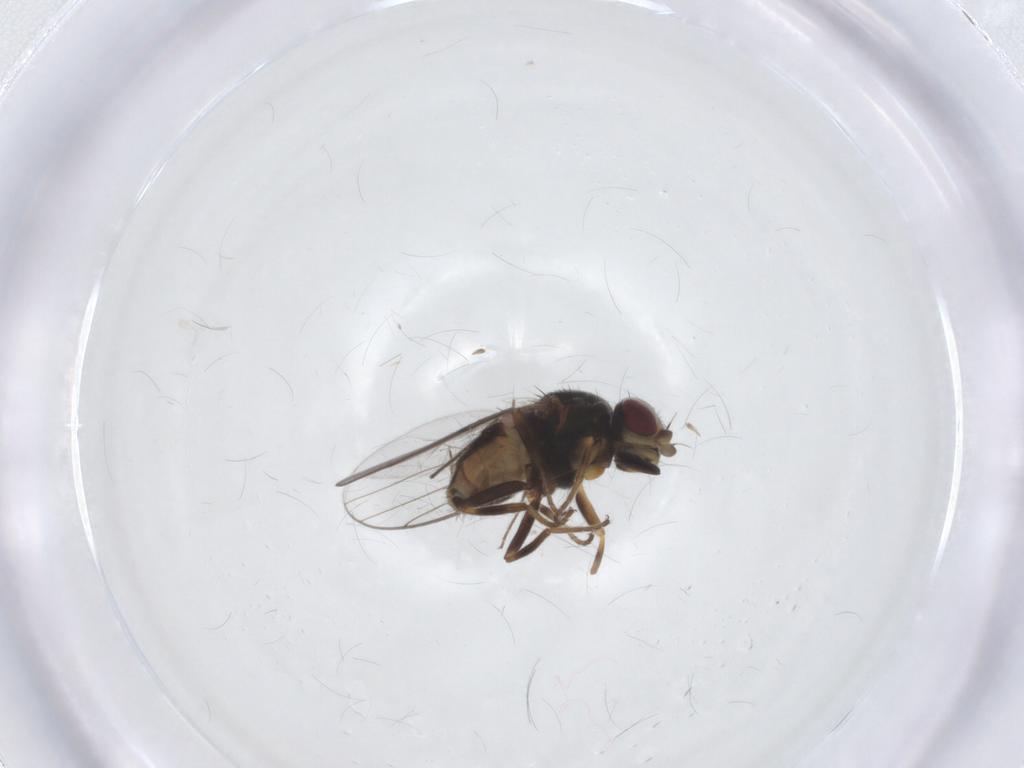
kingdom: Animalia
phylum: Arthropoda
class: Insecta
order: Diptera
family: Chloropidae
